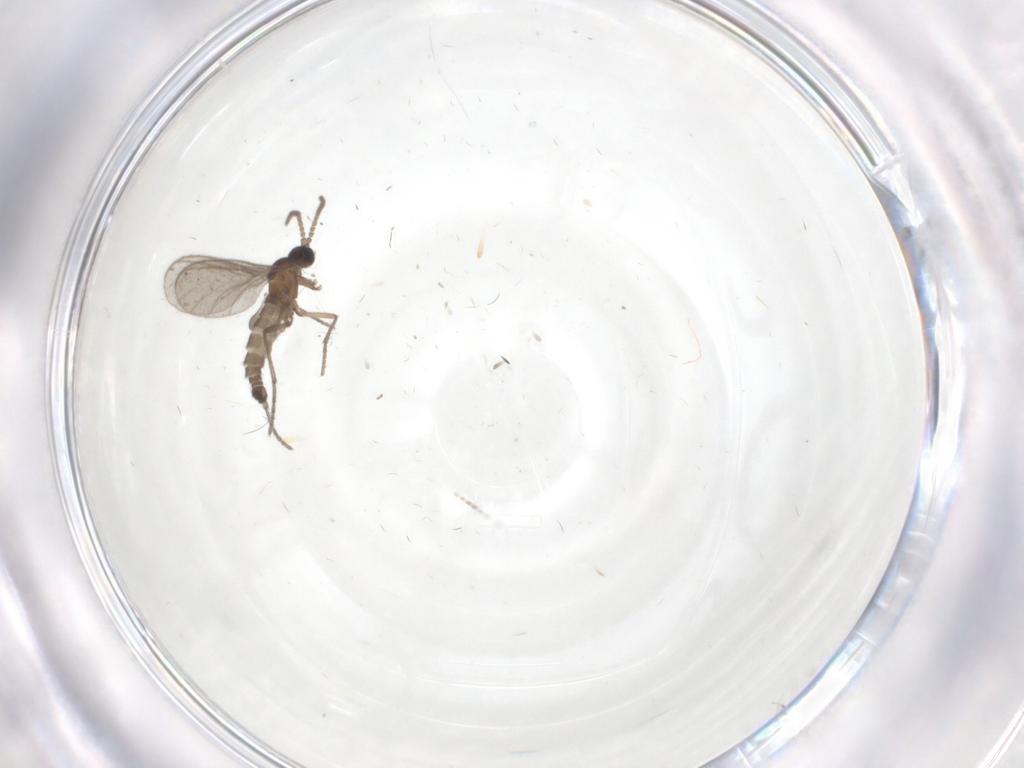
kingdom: Animalia
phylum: Arthropoda
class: Insecta
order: Diptera
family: Sciaridae
